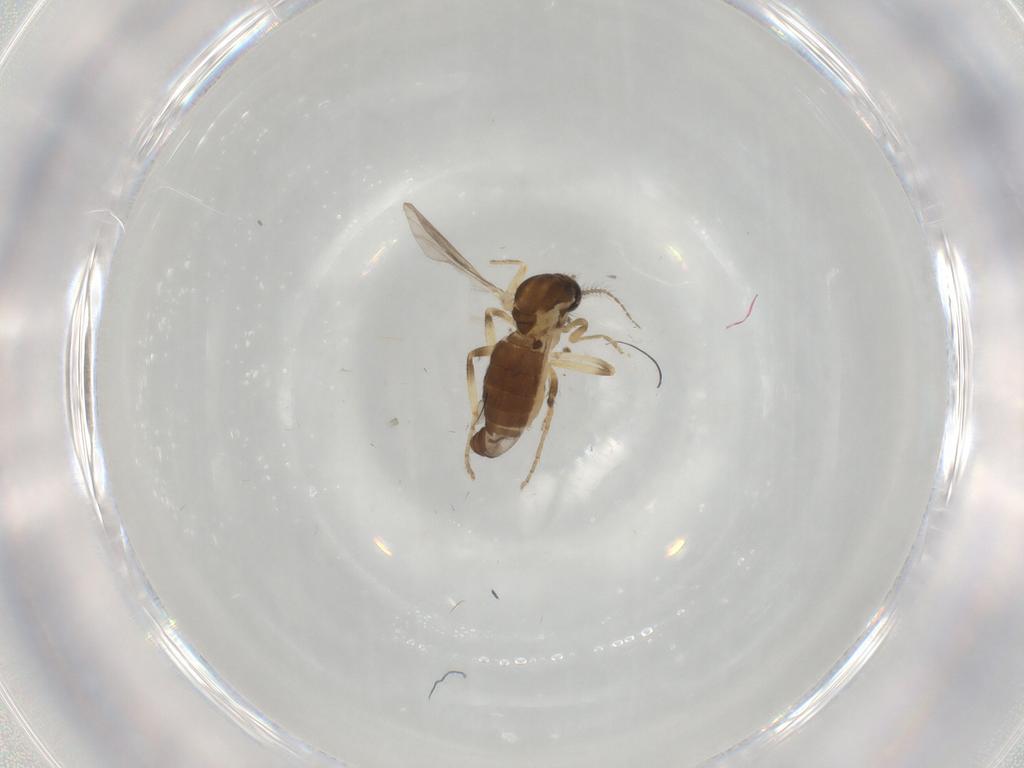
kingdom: Animalia
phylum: Arthropoda
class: Insecta
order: Diptera
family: Ceratopogonidae
